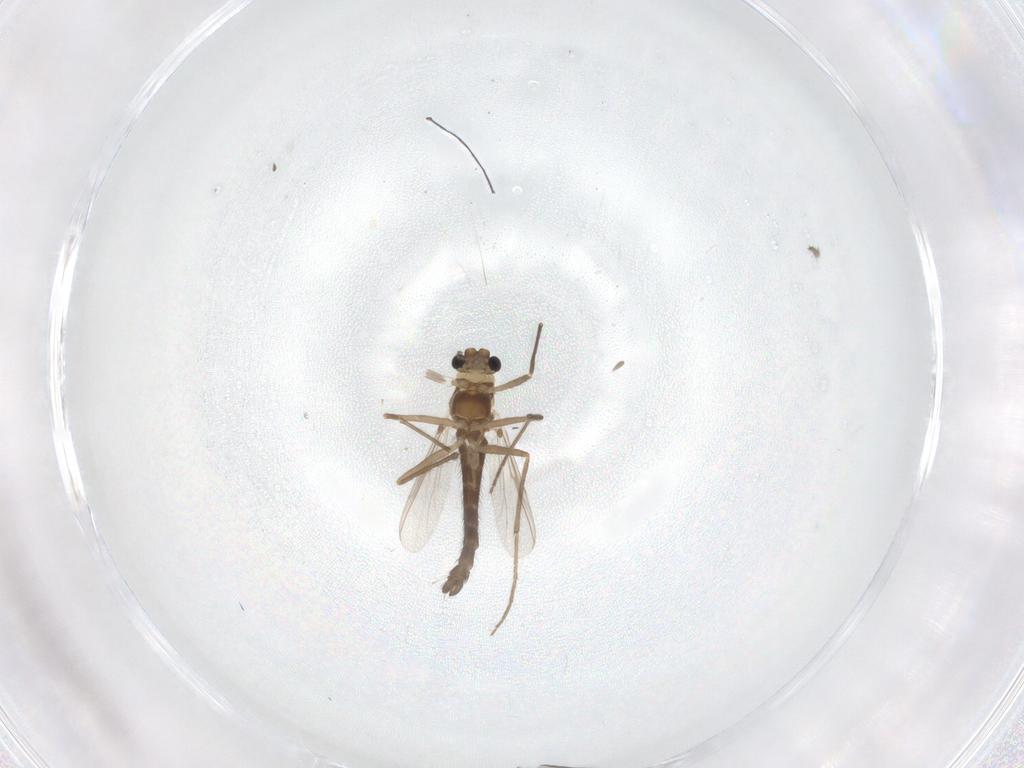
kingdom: Animalia
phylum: Arthropoda
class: Insecta
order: Diptera
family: Chironomidae
